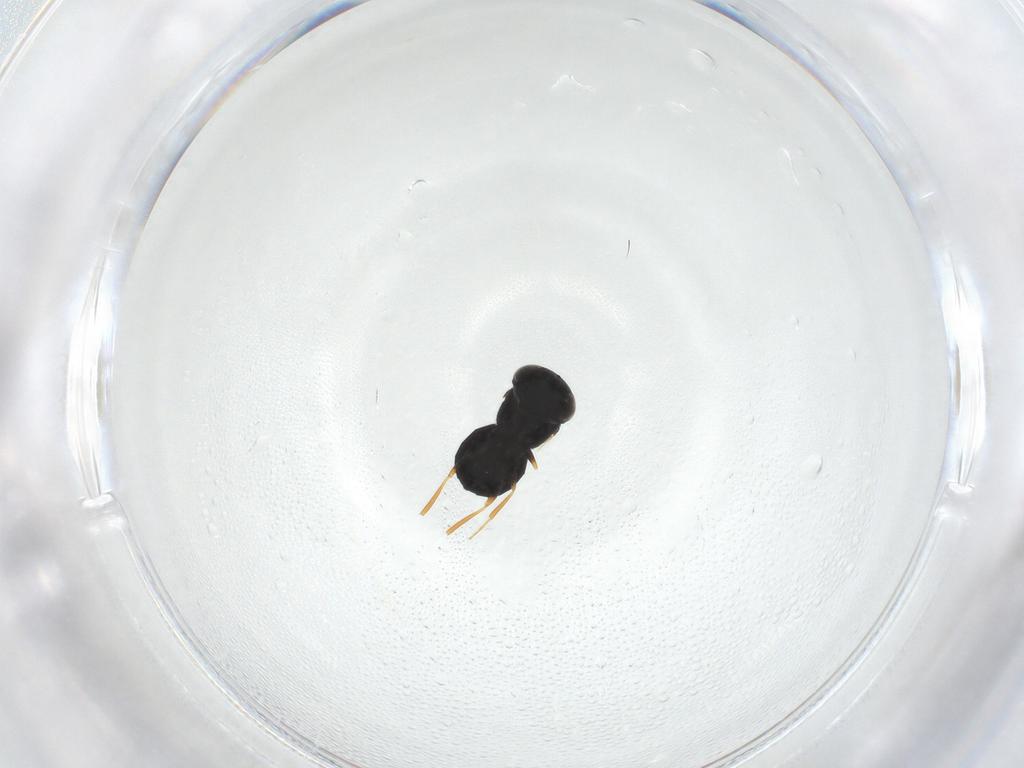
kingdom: Animalia
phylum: Arthropoda
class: Insecta
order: Hymenoptera
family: Scelionidae
